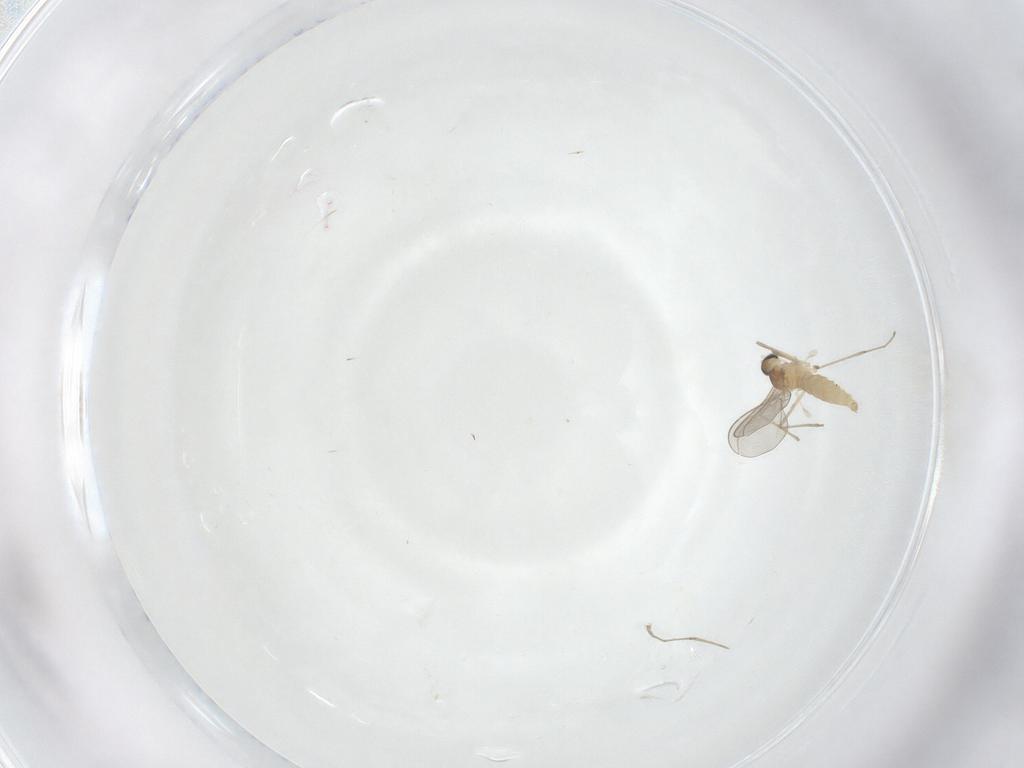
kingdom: Animalia
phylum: Arthropoda
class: Insecta
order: Diptera
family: Cecidomyiidae
